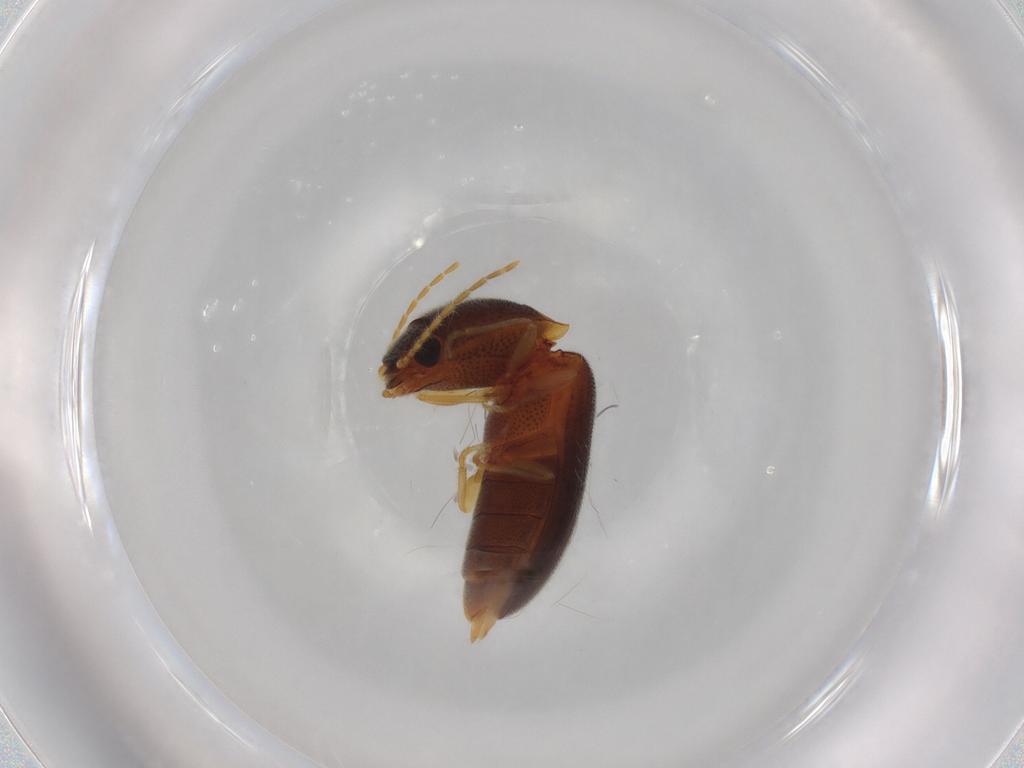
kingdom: Animalia
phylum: Arthropoda
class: Insecta
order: Coleoptera
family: Elateridae
